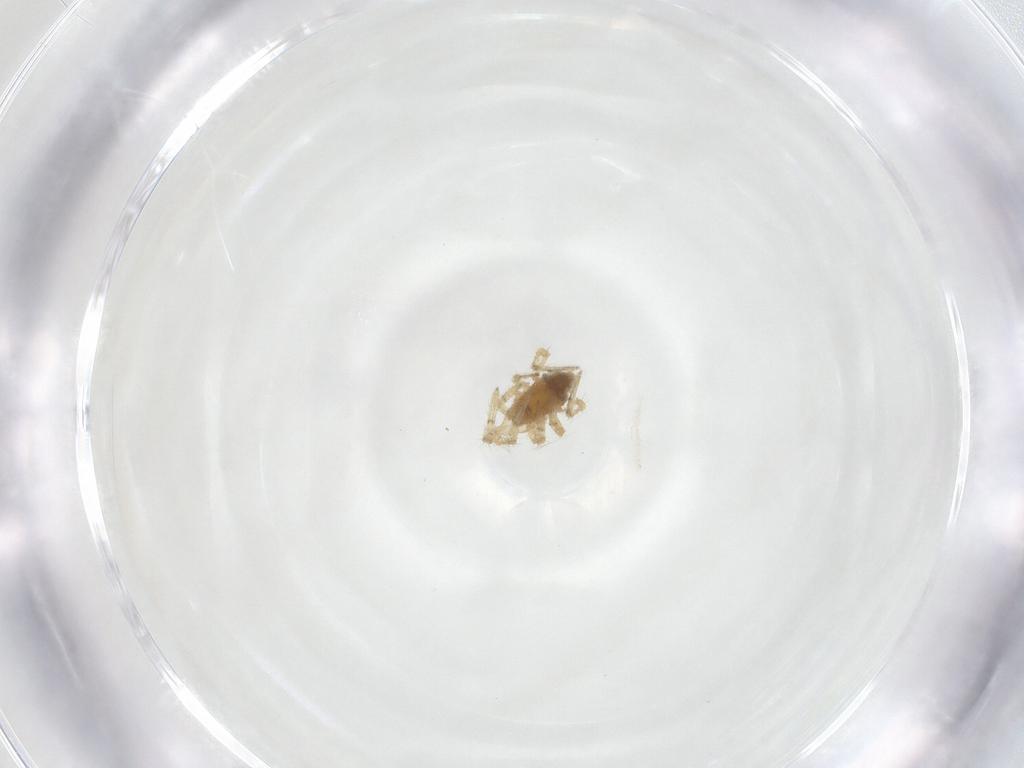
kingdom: Animalia
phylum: Arthropoda
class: Arachnida
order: Araneae
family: Theridiidae
